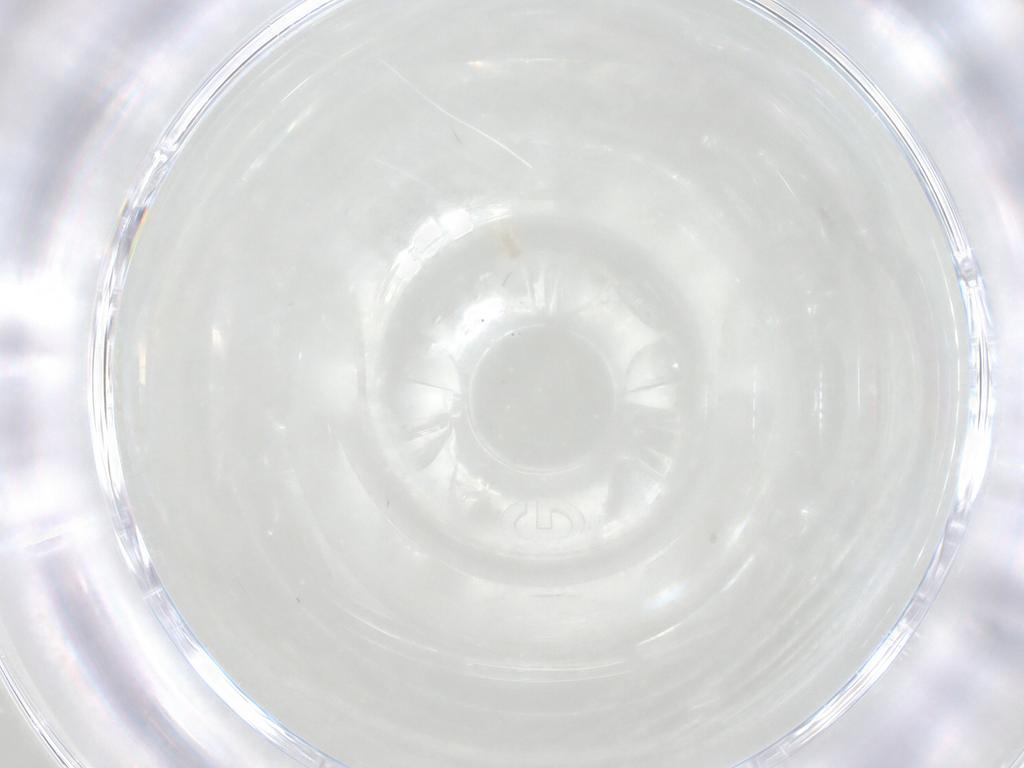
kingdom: Animalia
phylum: Arthropoda
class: Arachnida
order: Trombidiformes
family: Bdellidae
